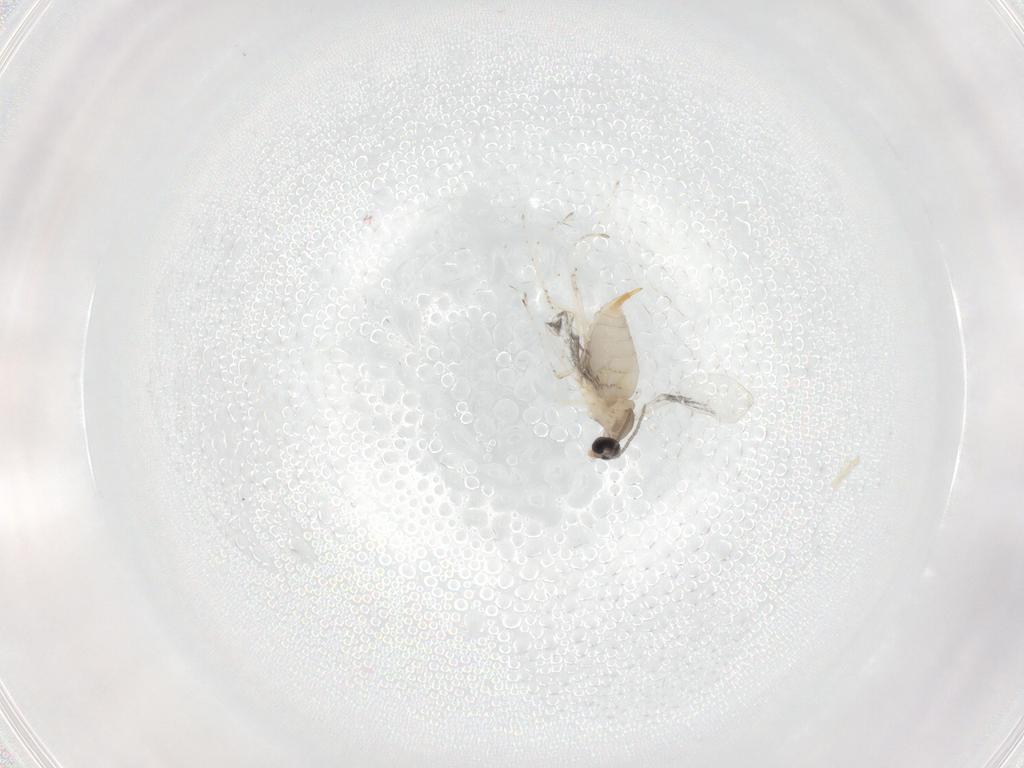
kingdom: Animalia
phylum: Arthropoda
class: Insecta
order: Diptera
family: Cecidomyiidae
